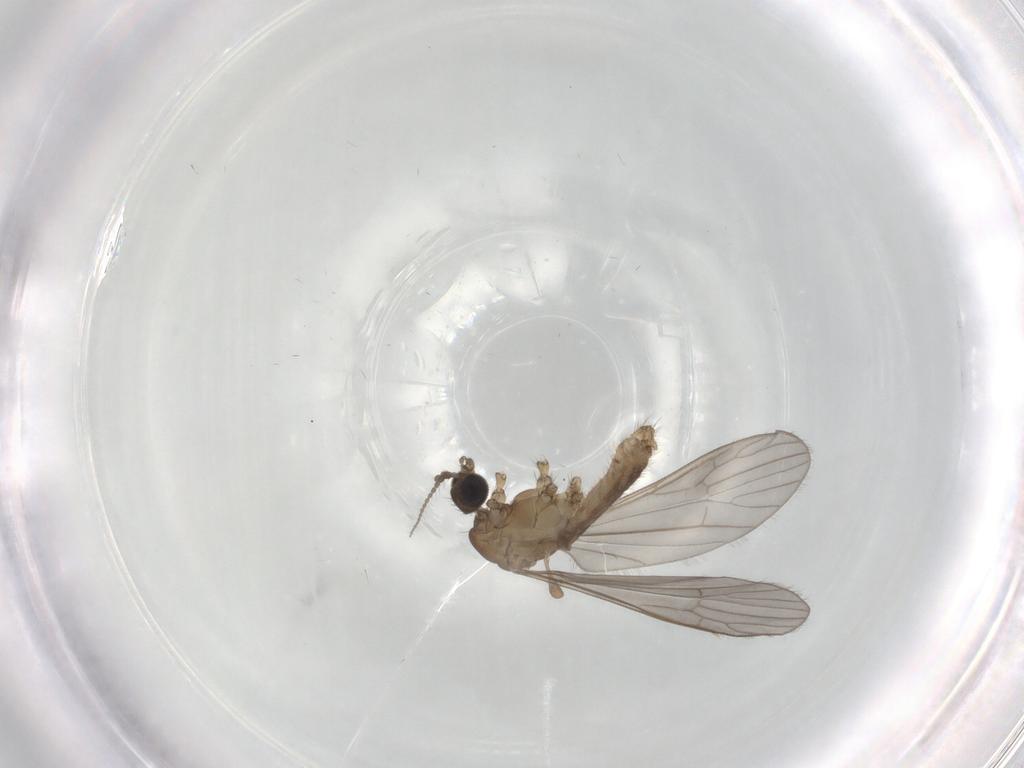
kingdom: Animalia
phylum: Arthropoda
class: Insecta
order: Diptera
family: Limoniidae
